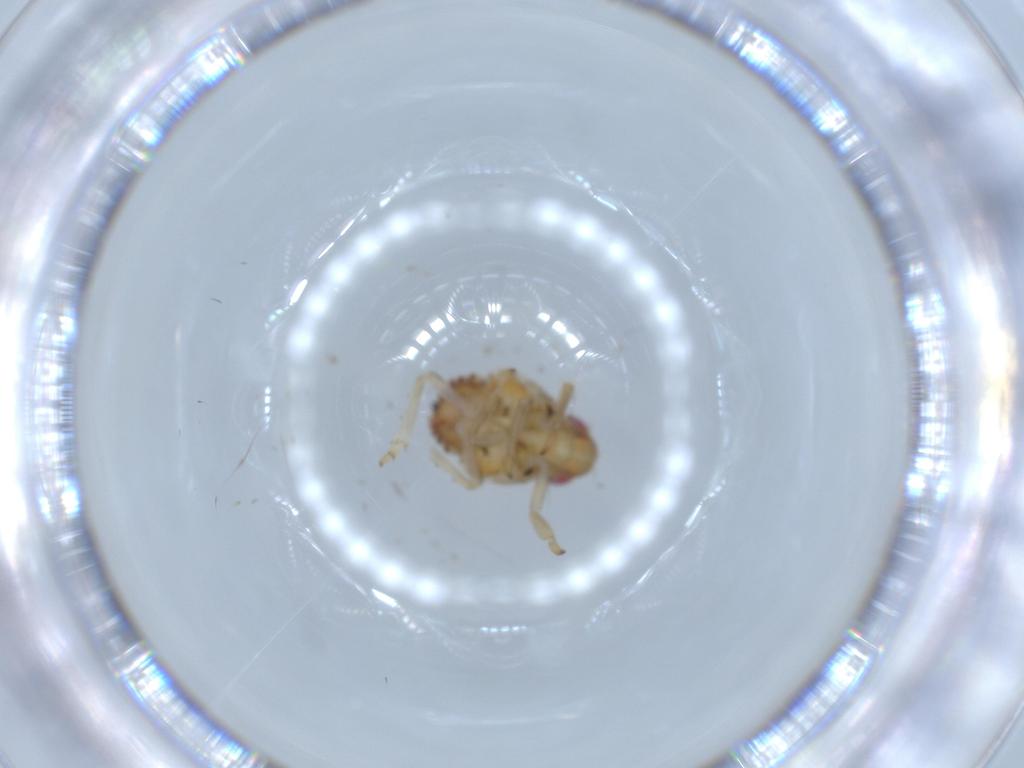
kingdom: Animalia
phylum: Arthropoda
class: Insecta
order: Hemiptera
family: Issidae
